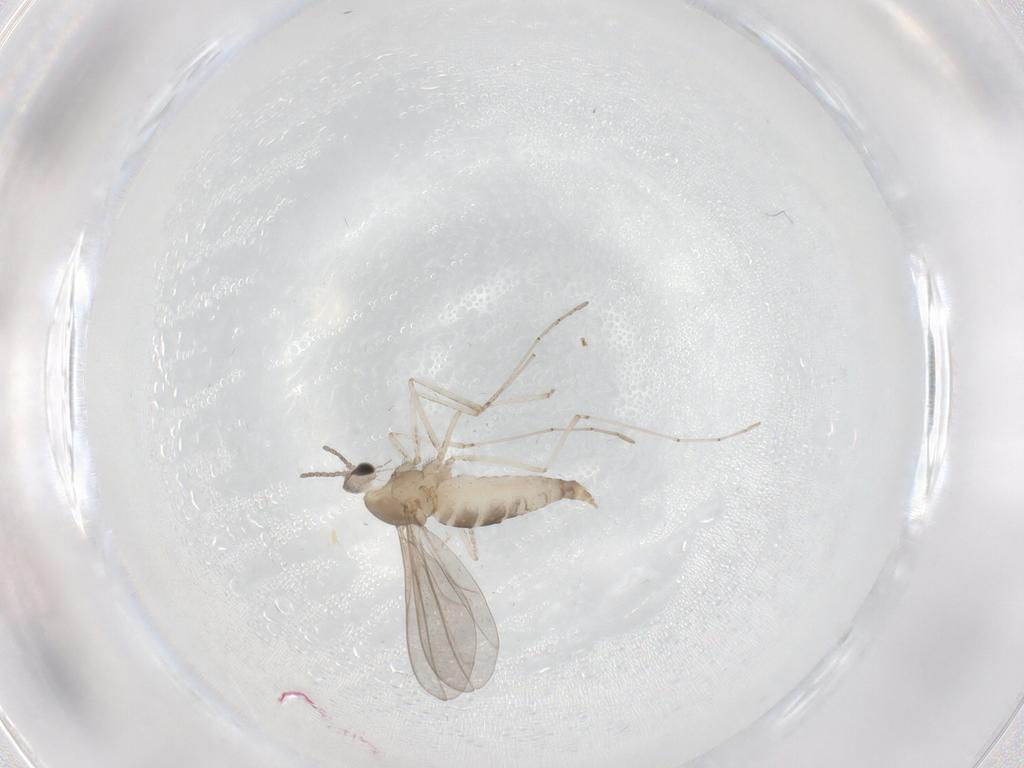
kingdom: Animalia
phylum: Arthropoda
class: Insecta
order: Diptera
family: Cecidomyiidae
